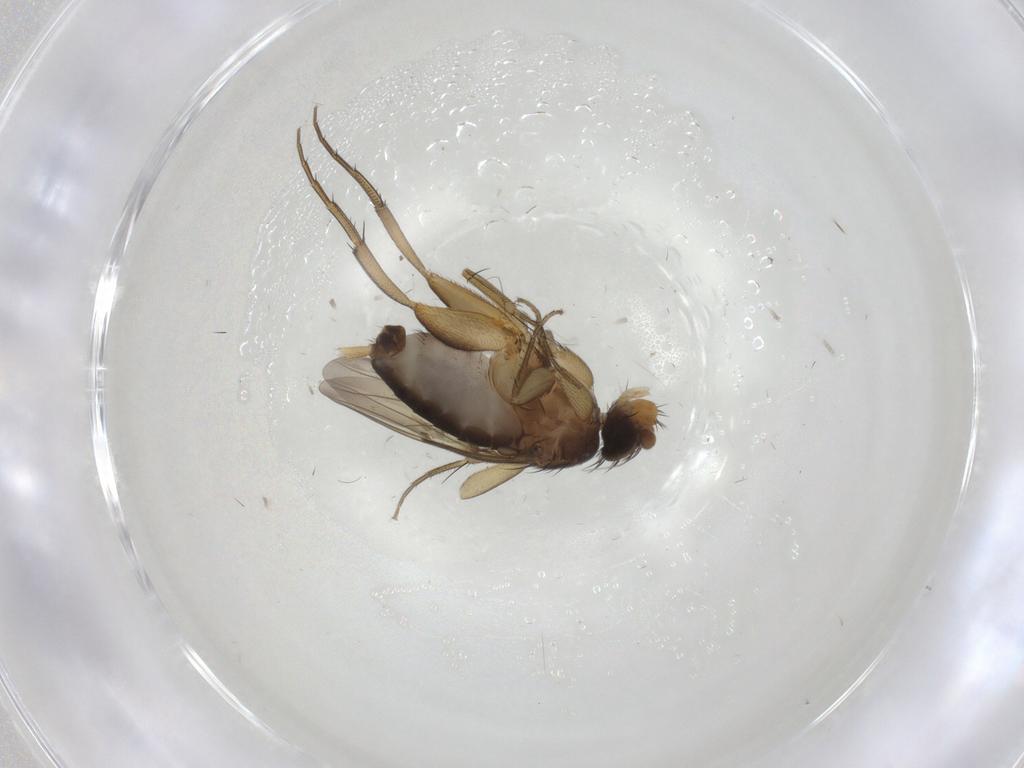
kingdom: Animalia
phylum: Arthropoda
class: Insecta
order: Diptera
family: Phoridae
